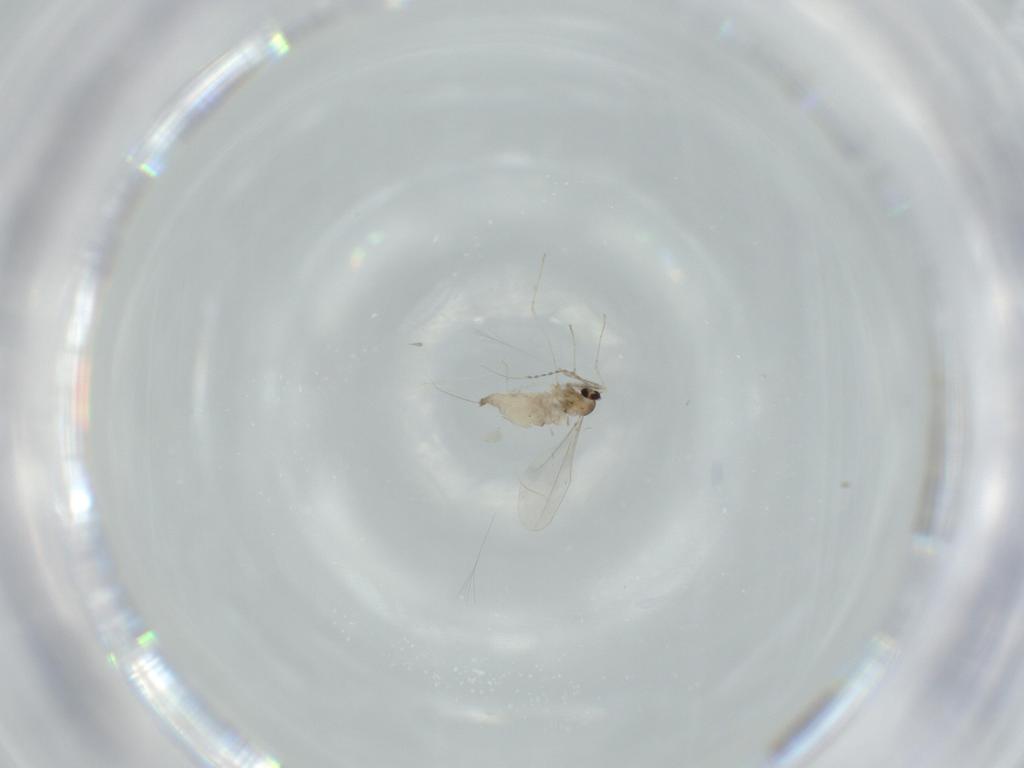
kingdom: Animalia
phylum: Arthropoda
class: Insecta
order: Diptera
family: Cecidomyiidae
